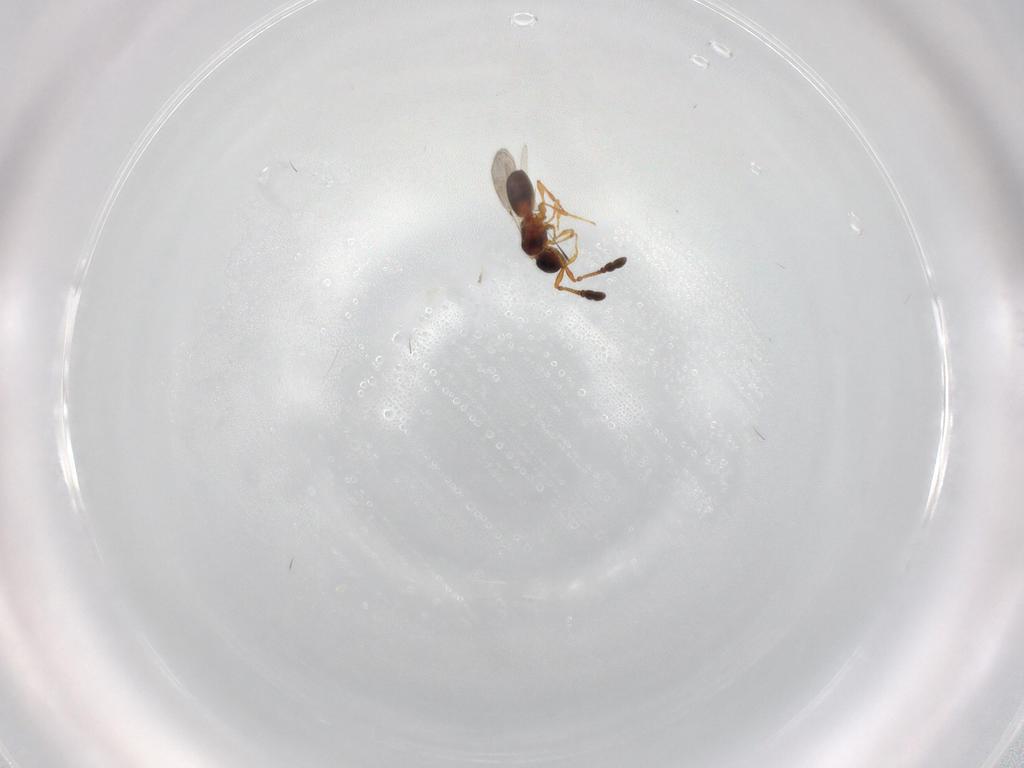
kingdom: Animalia
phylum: Arthropoda
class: Insecta
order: Hymenoptera
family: Diapriidae
